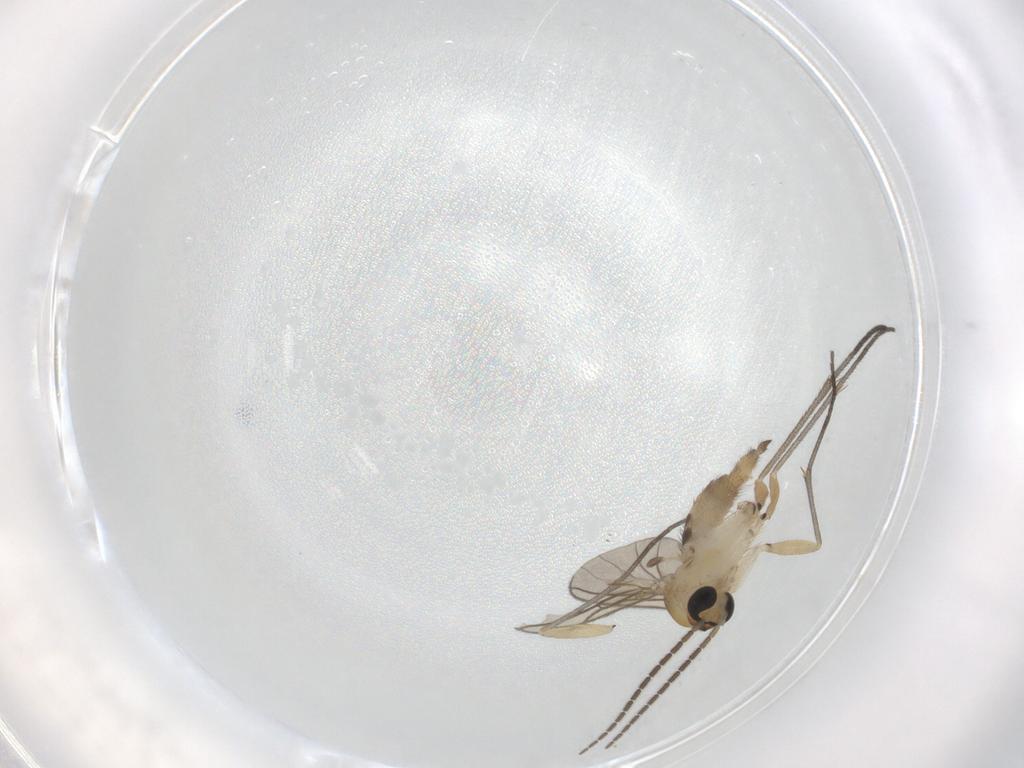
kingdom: Animalia
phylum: Arthropoda
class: Insecta
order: Diptera
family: Sciaridae
